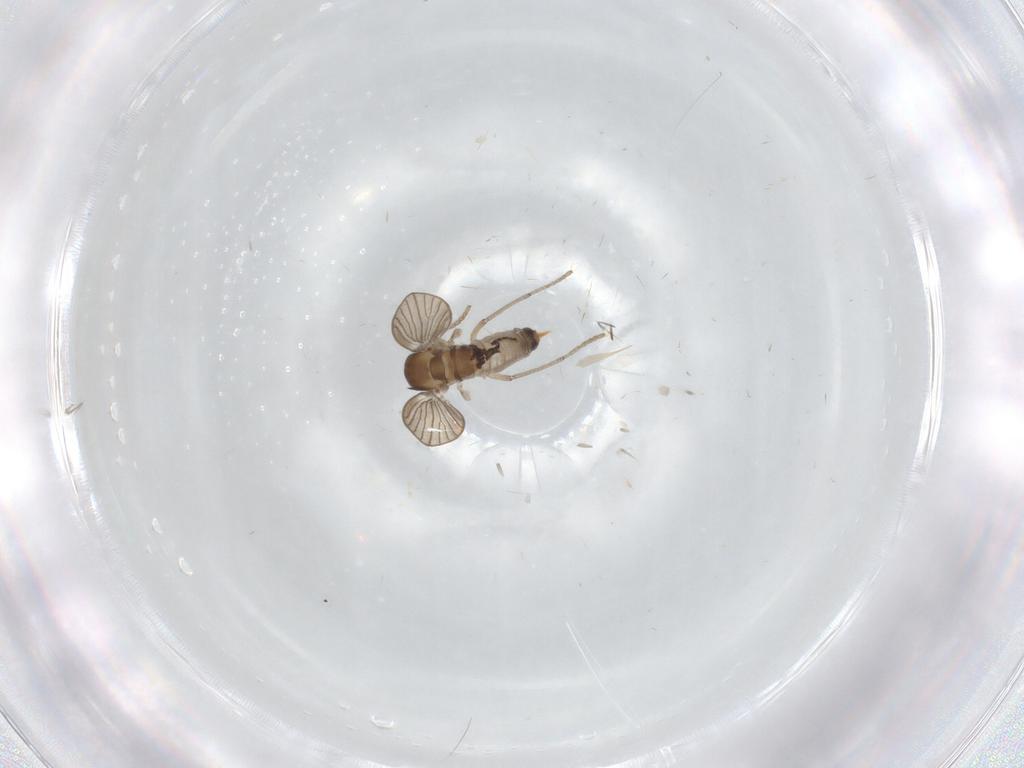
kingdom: Animalia
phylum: Arthropoda
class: Insecta
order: Diptera
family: Psychodidae
